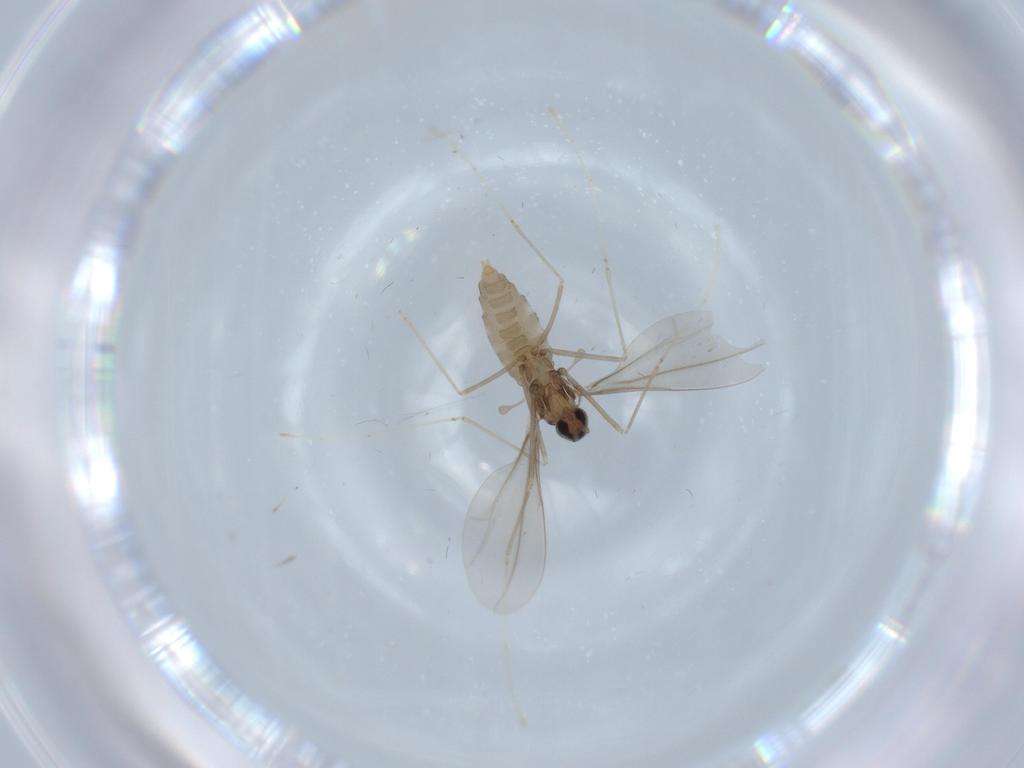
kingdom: Animalia
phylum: Arthropoda
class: Insecta
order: Diptera
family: Cecidomyiidae
